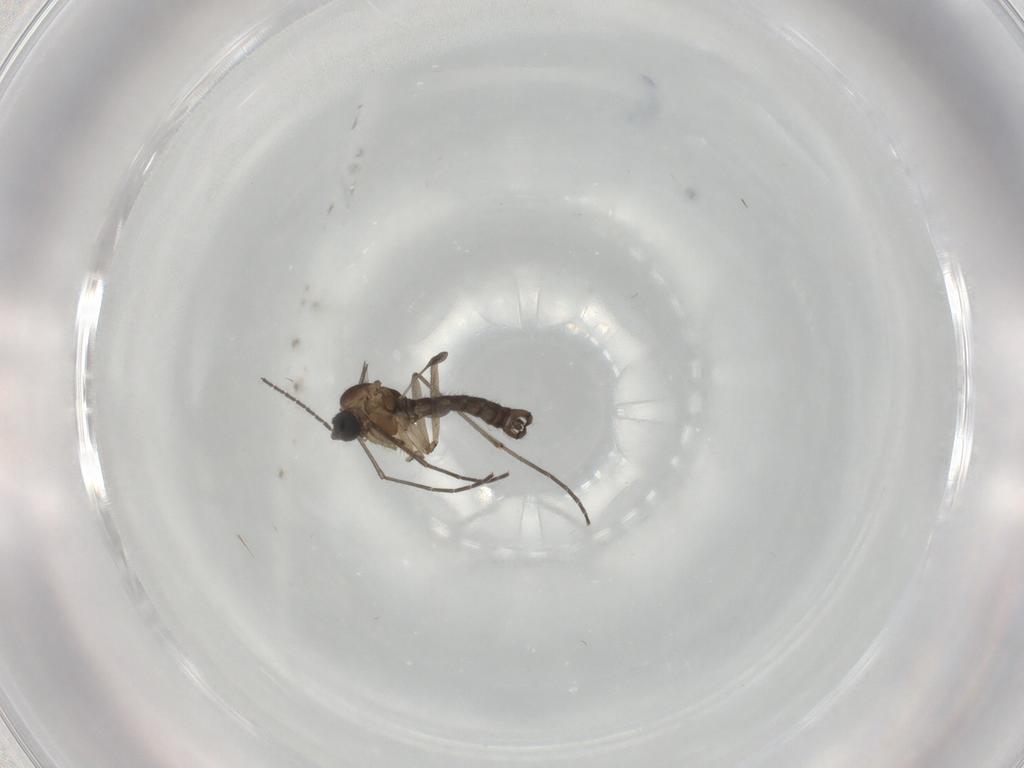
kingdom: Animalia
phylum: Arthropoda
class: Insecta
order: Diptera
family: Sciaridae
